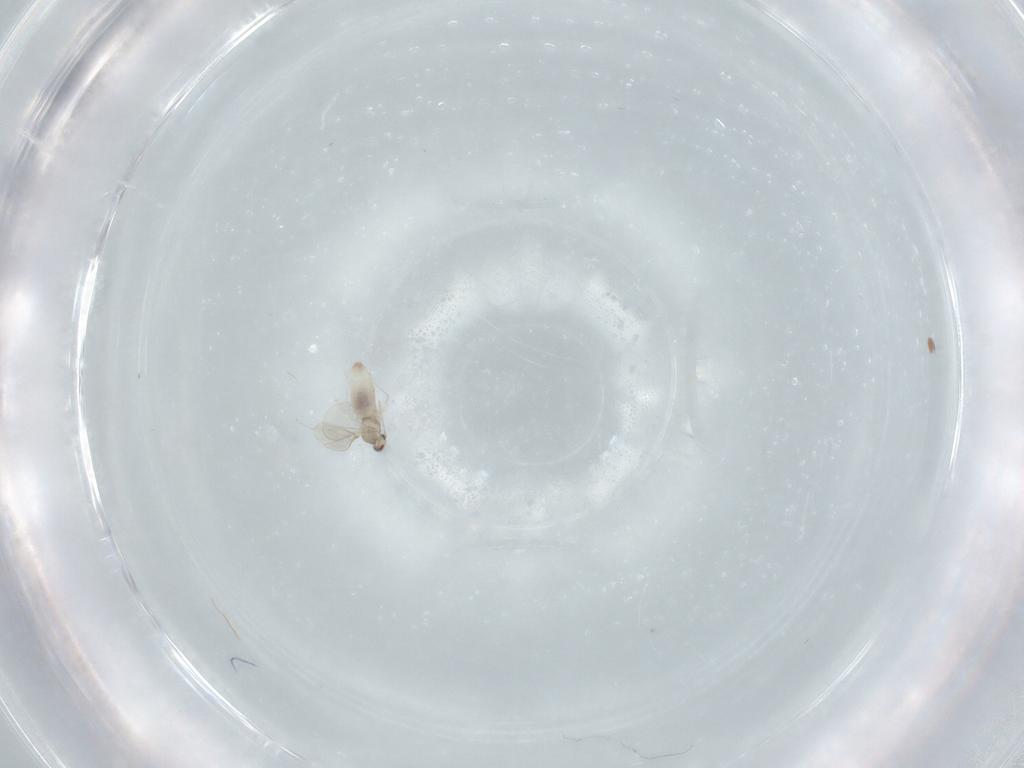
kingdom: Animalia
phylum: Arthropoda
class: Insecta
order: Diptera
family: Cecidomyiidae
